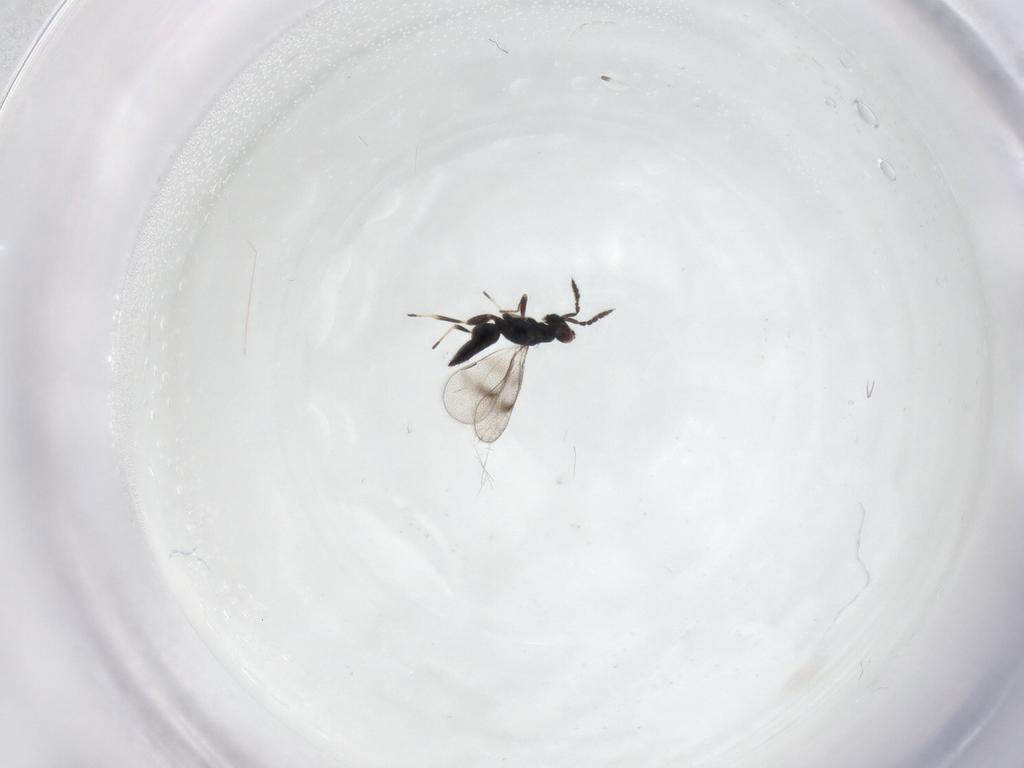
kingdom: Animalia
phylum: Arthropoda
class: Insecta
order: Hymenoptera
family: Eulophidae
